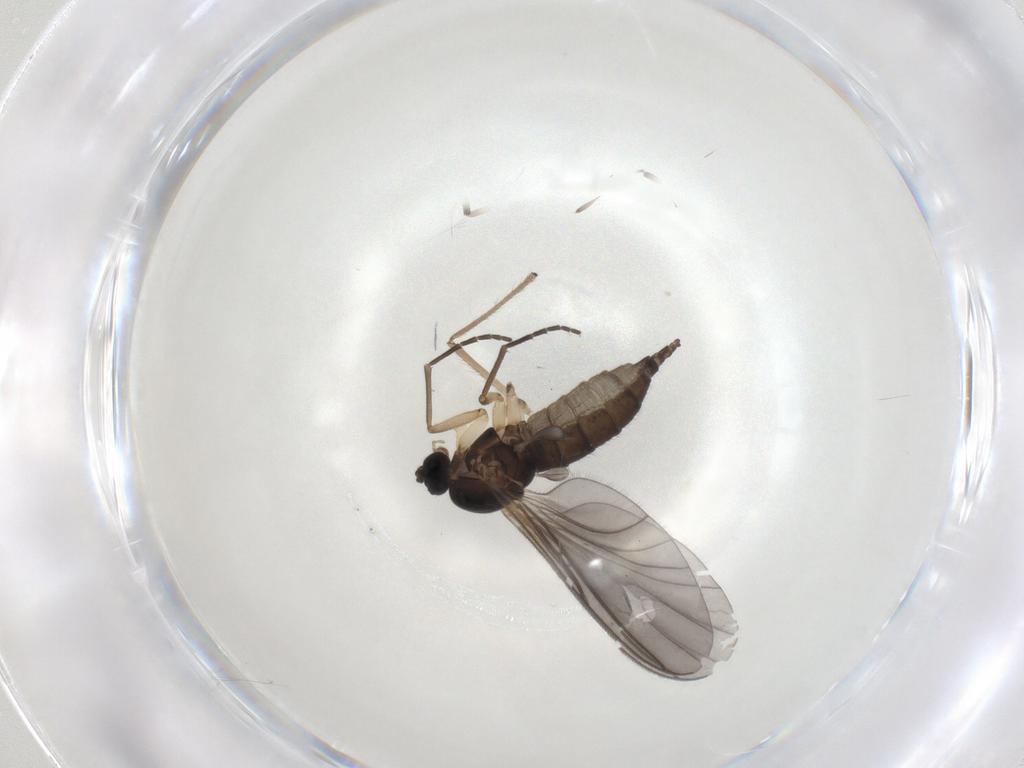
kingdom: Animalia
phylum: Arthropoda
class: Insecta
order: Diptera
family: Sciaridae
